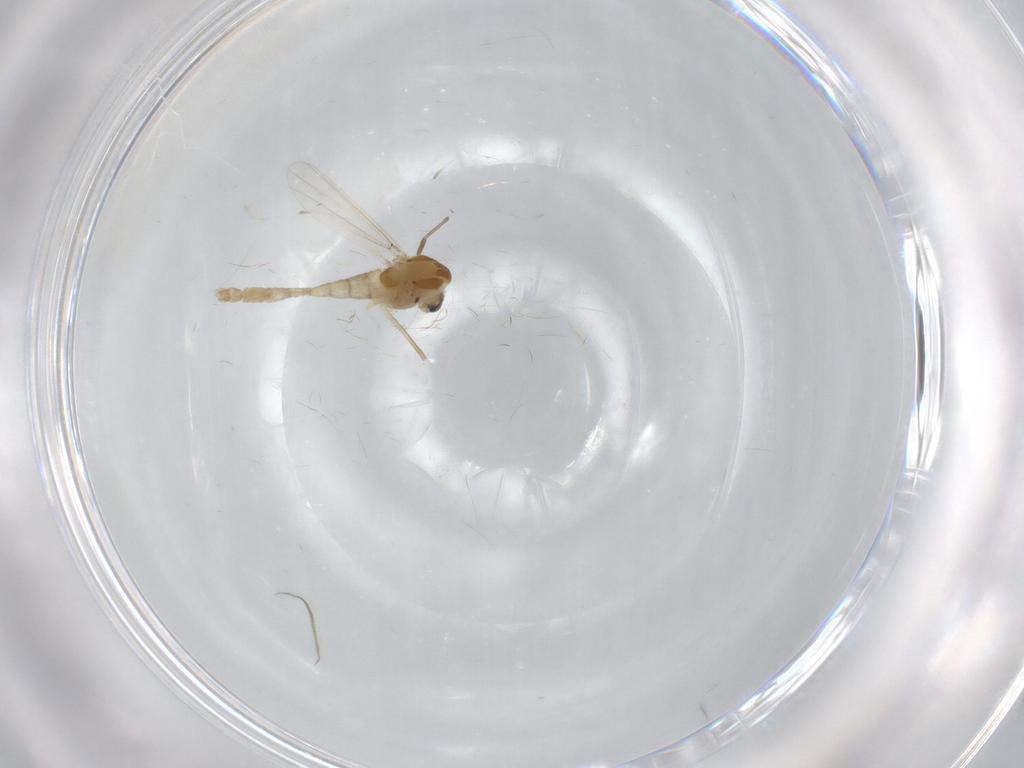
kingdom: Animalia
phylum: Arthropoda
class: Insecta
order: Diptera
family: Chironomidae
